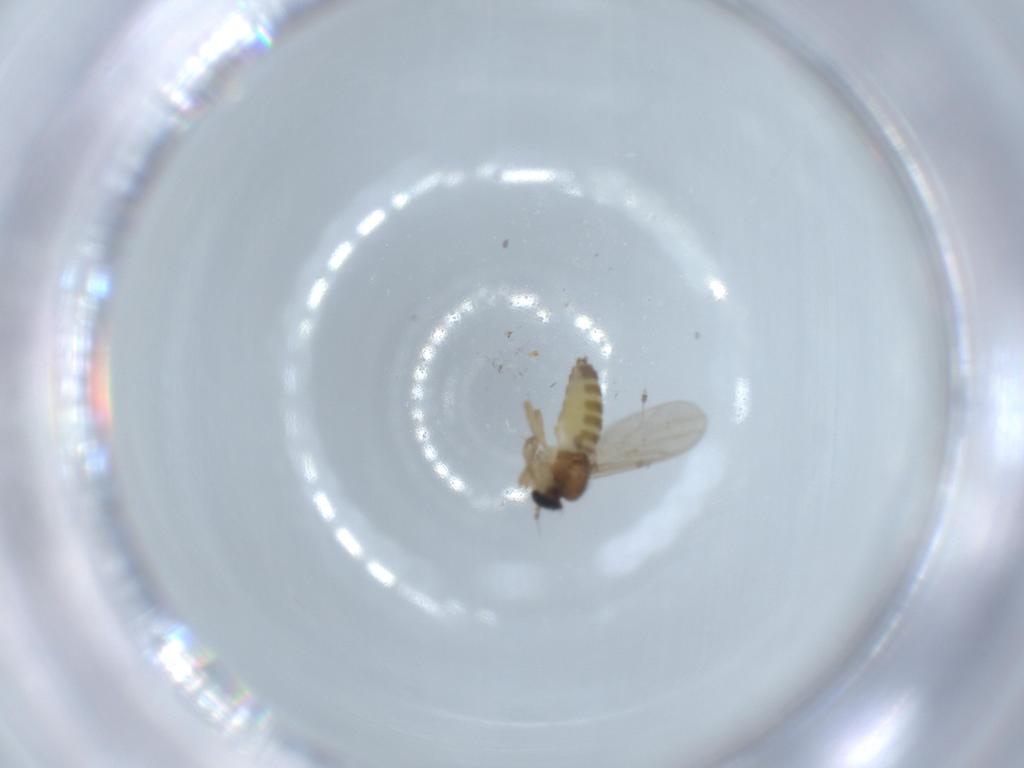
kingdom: Animalia
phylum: Arthropoda
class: Insecta
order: Diptera
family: Hybotidae
